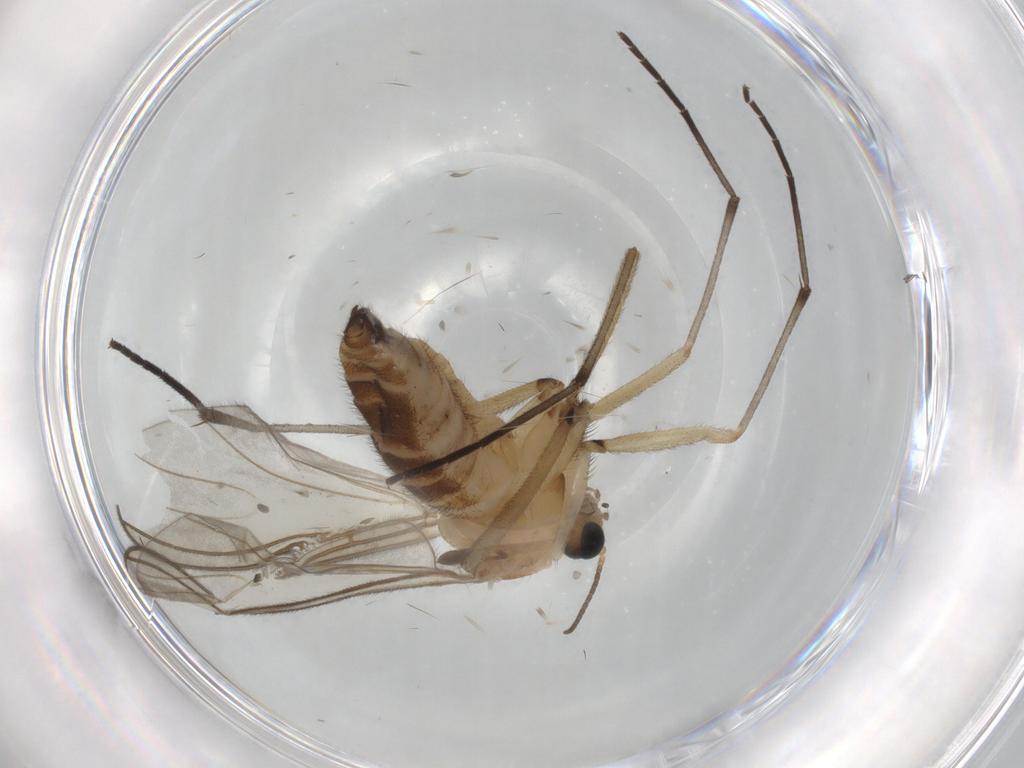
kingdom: Animalia
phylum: Arthropoda
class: Insecta
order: Diptera
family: Sciaridae
